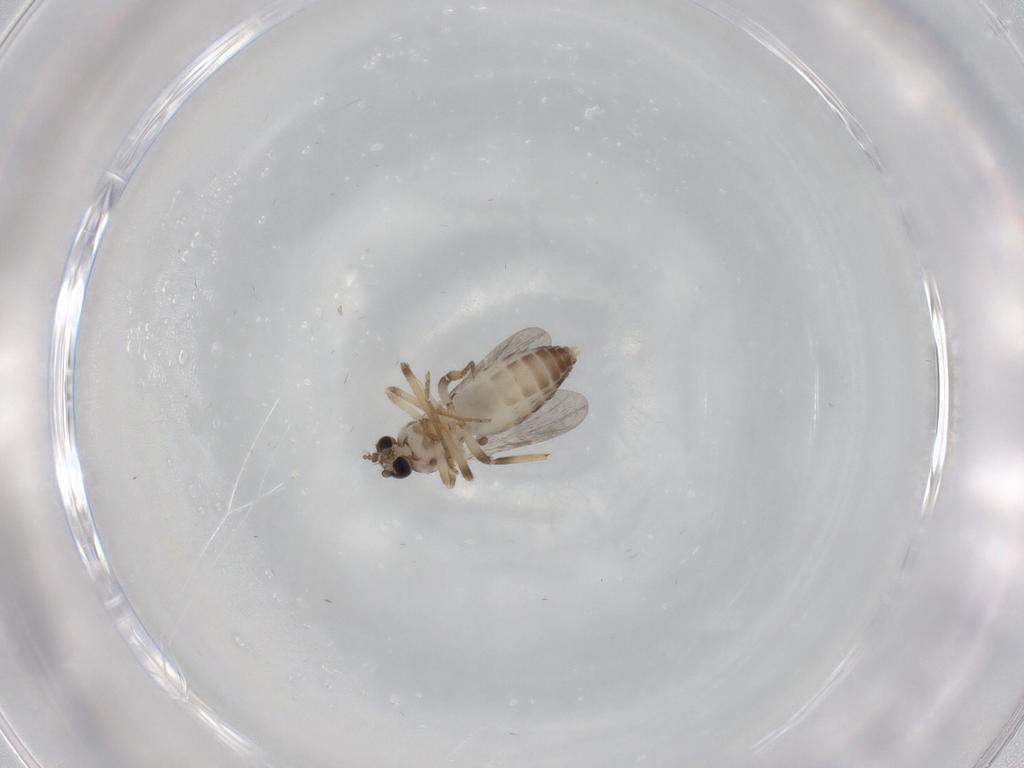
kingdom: Animalia
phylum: Arthropoda
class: Insecta
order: Diptera
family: Ceratopogonidae
